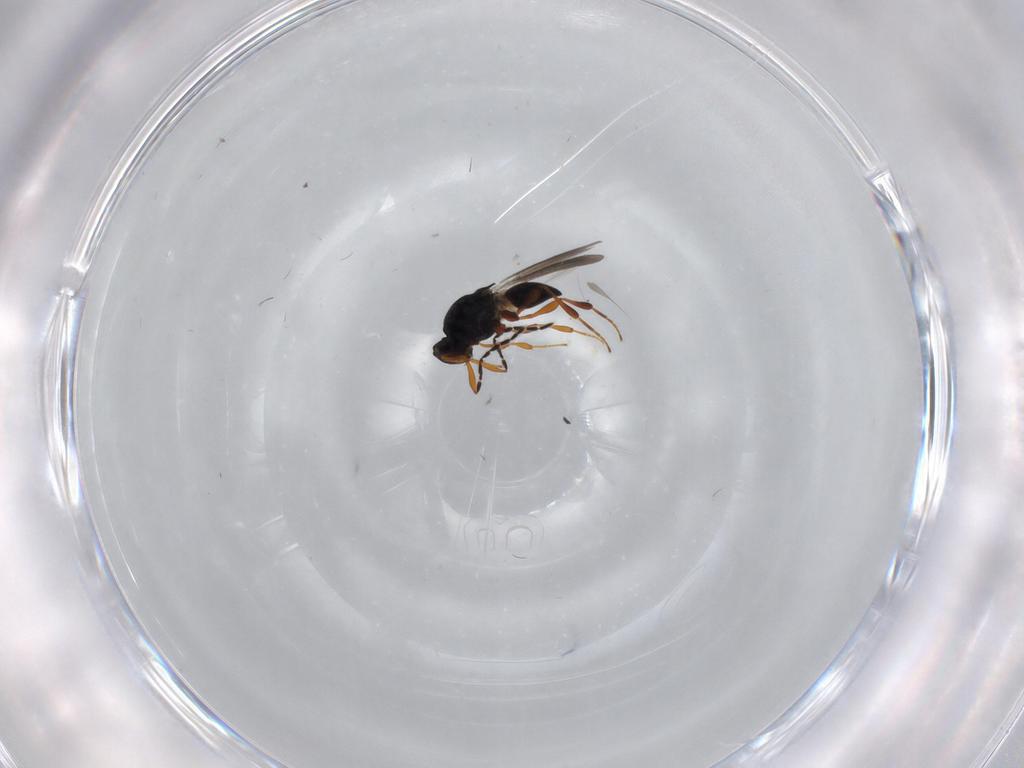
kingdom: Animalia
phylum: Arthropoda
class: Insecta
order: Hymenoptera
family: Platygastridae
